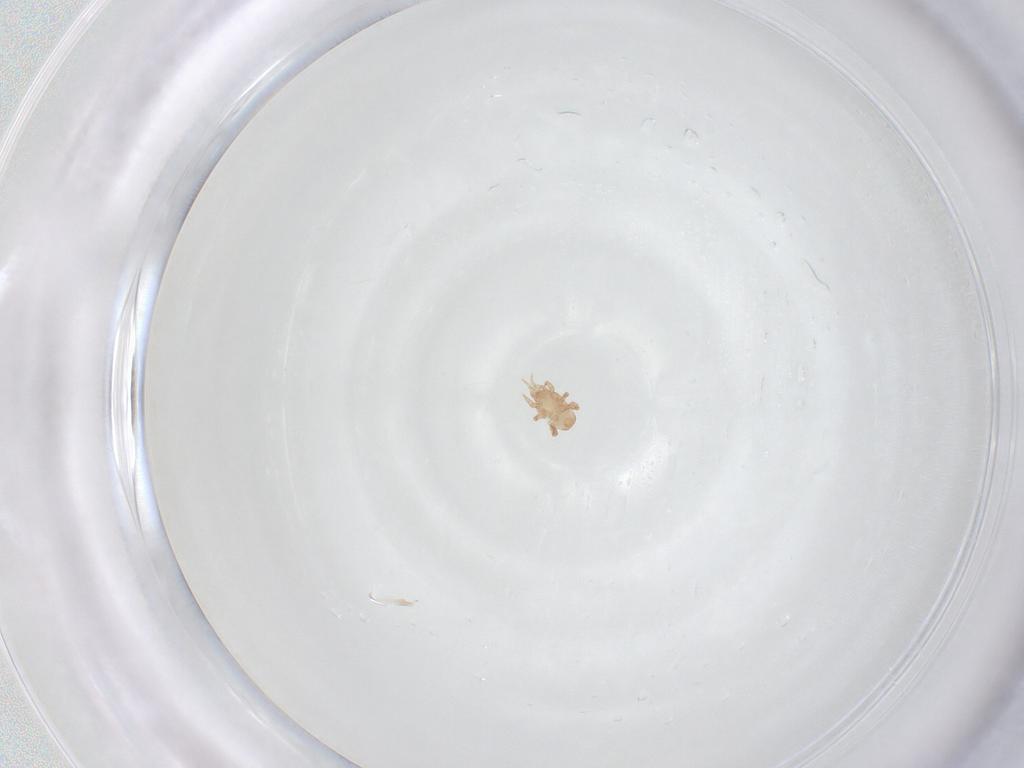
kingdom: Animalia
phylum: Arthropoda
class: Arachnida
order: Mesostigmata
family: Halolaelapidae
